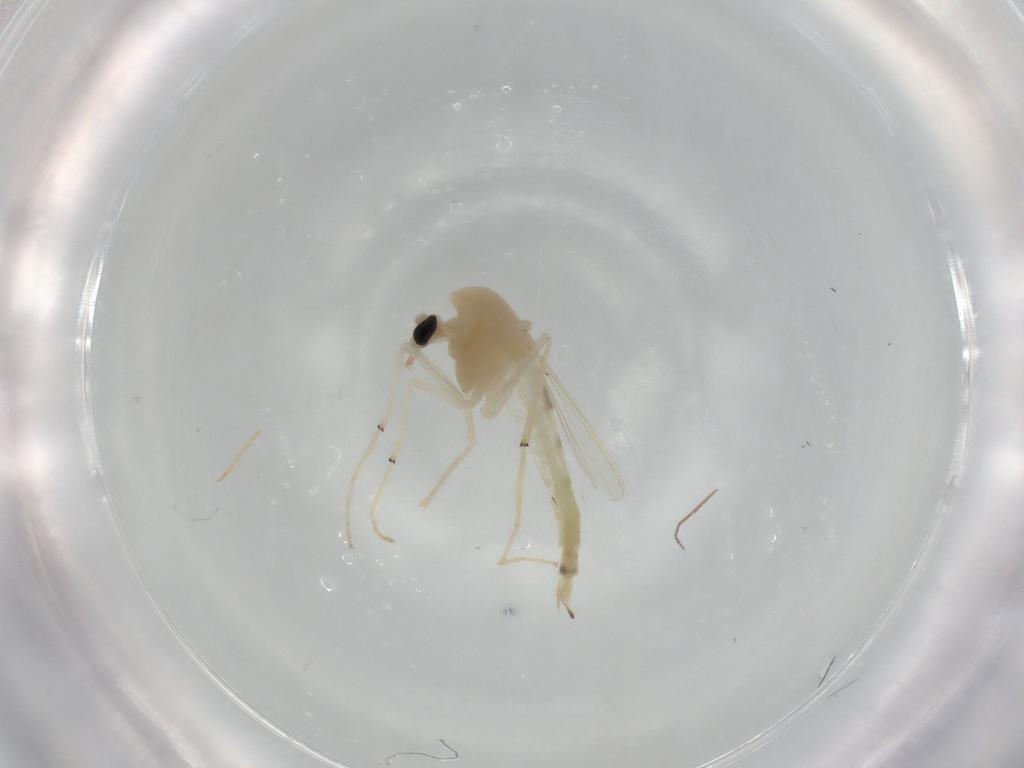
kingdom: Animalia
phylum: Arthropoda
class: Insecta
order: Diptera
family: Chironomidae
